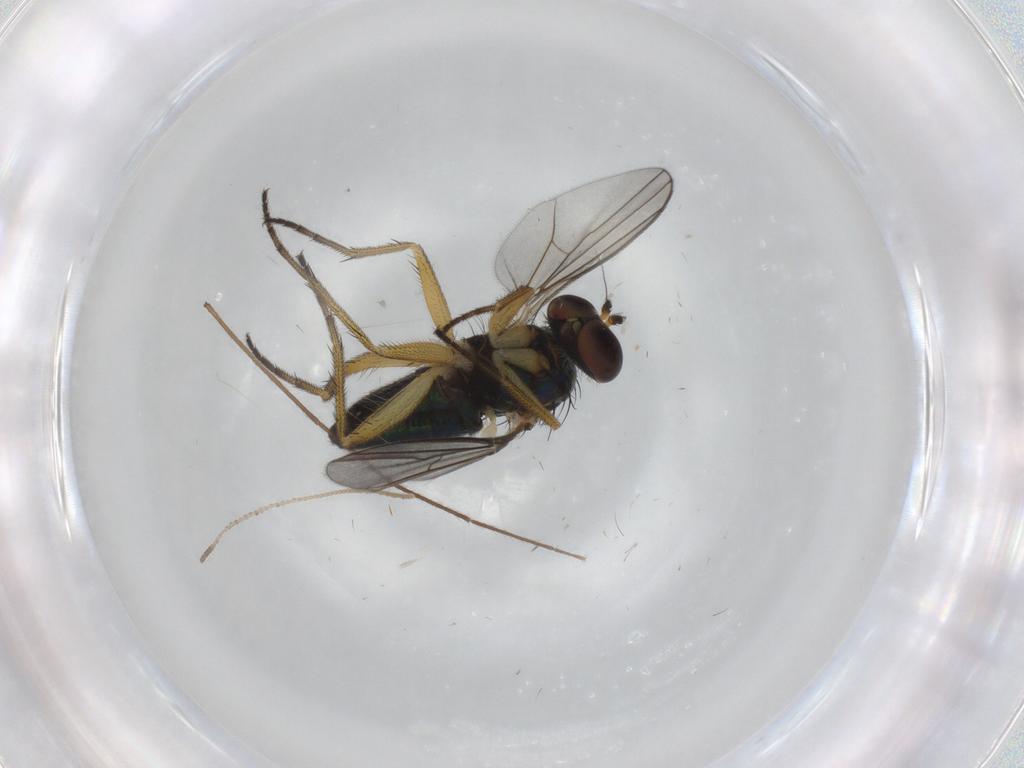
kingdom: Animalia
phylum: Arthropoda
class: Insecta
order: Diptera
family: Dolichopodidae
